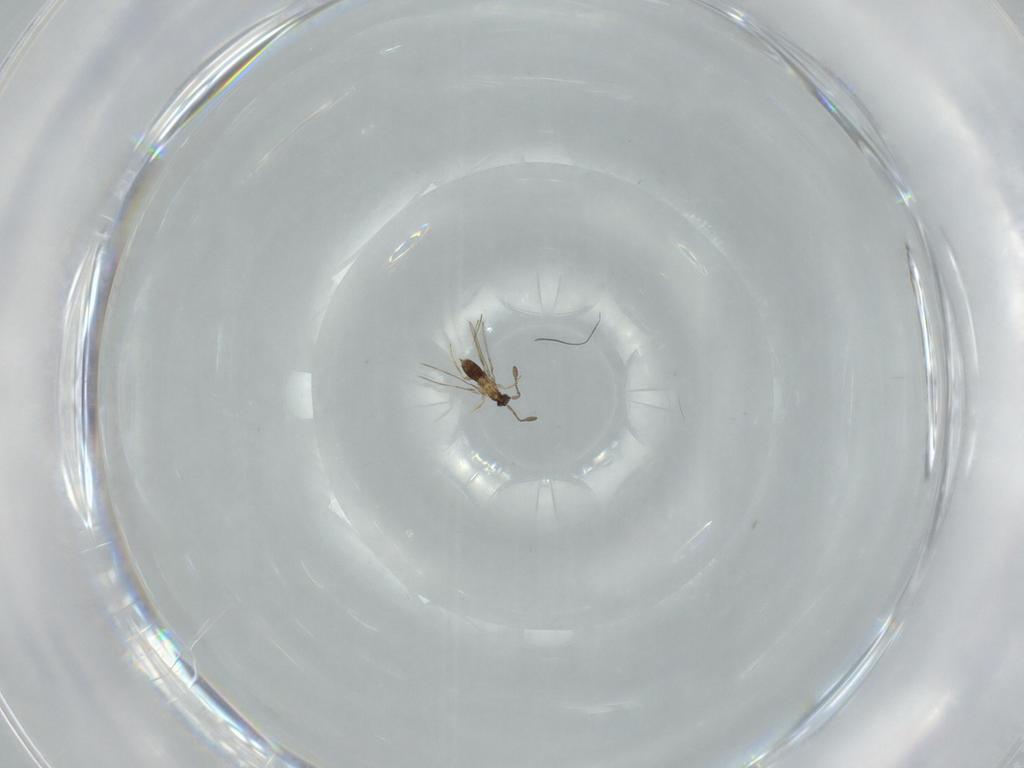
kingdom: Animalia
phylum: Arthropoda
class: Insecta
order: Hymenoptera
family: Mymaridae
